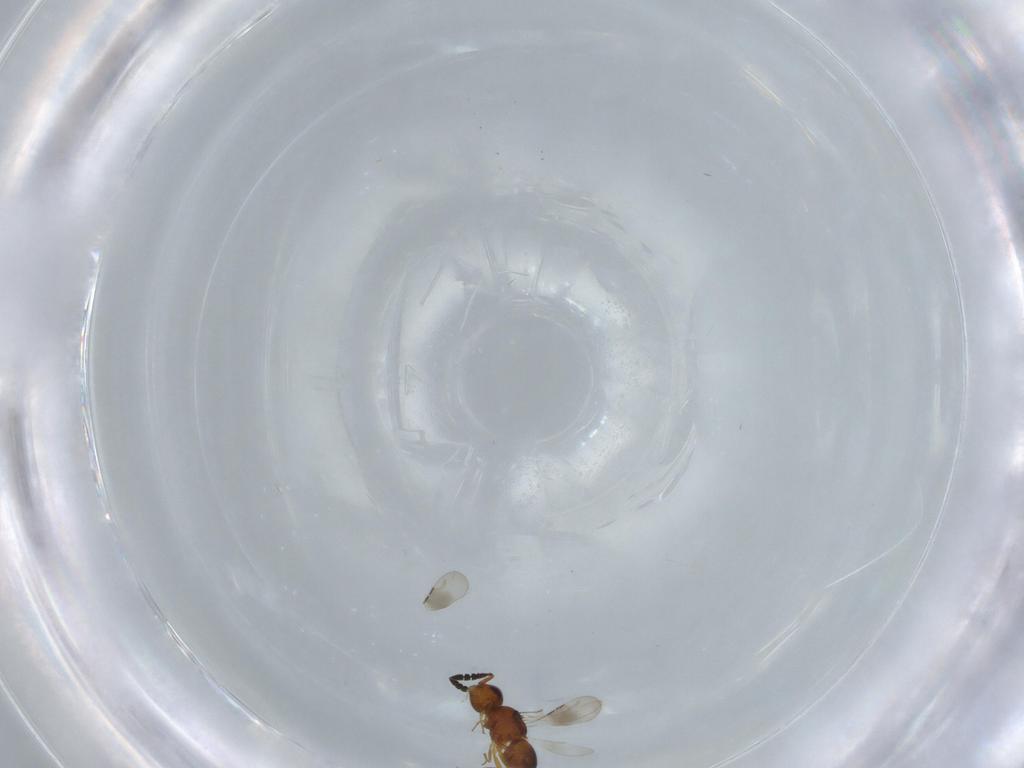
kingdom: Animalia
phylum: Arthropoda
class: Insecta
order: Hymenoptera
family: Ceraphronidae
